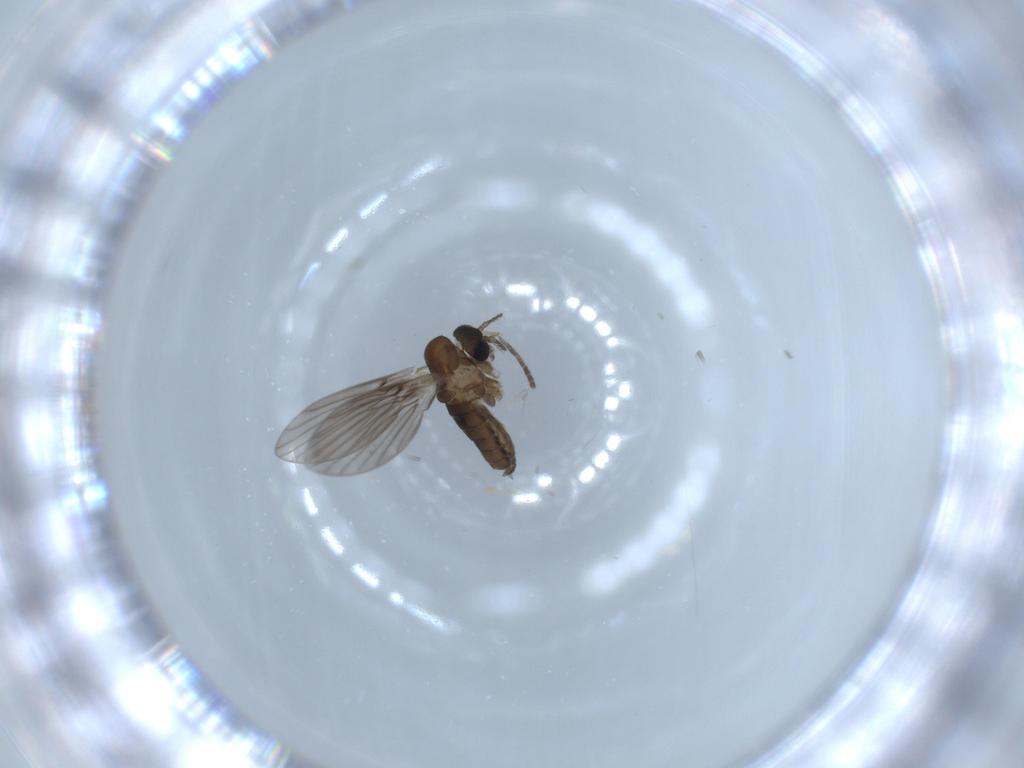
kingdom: Animalia
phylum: Arthropoda
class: Insecta
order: Diptera
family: Psychodidae
